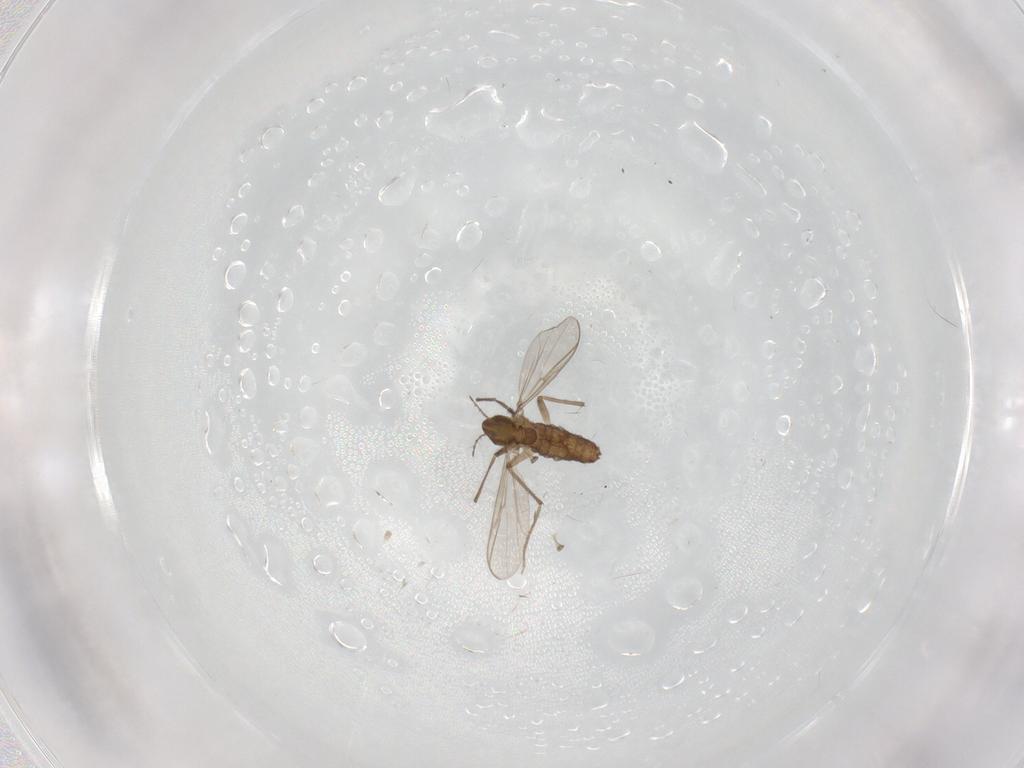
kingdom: Animalia
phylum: Arthropoda
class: Insecta
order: Diptera
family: Chironomidae
